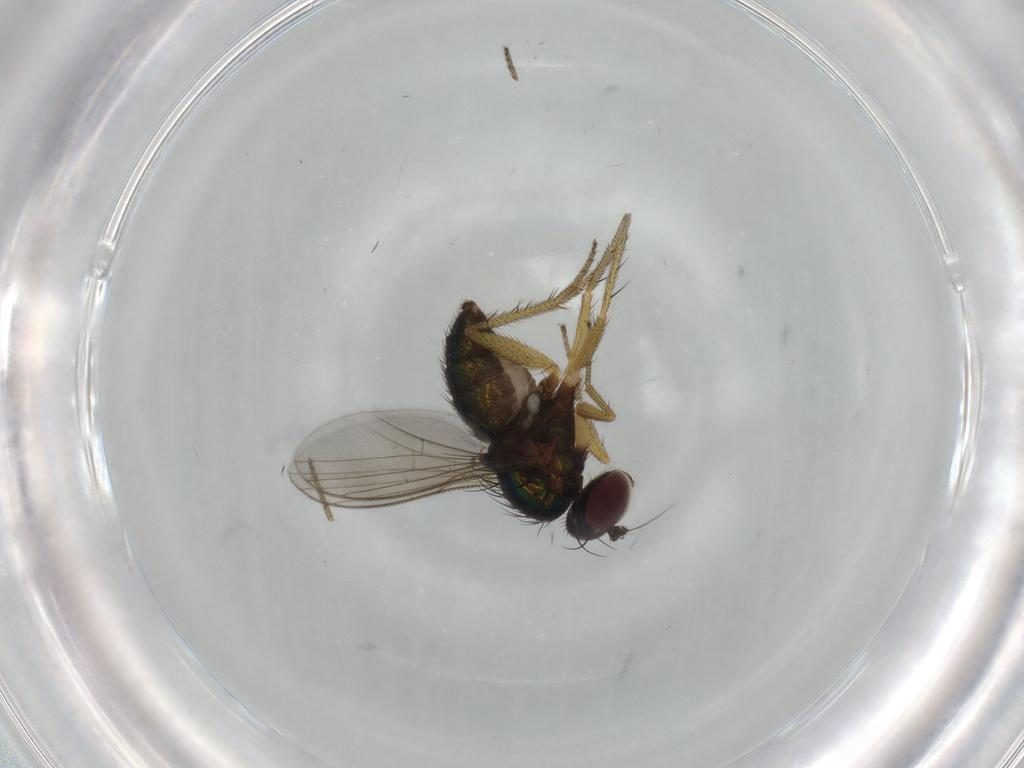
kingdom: Animalia
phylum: Arthropoda
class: Insecta
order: Diptera
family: Dolichopodidae
